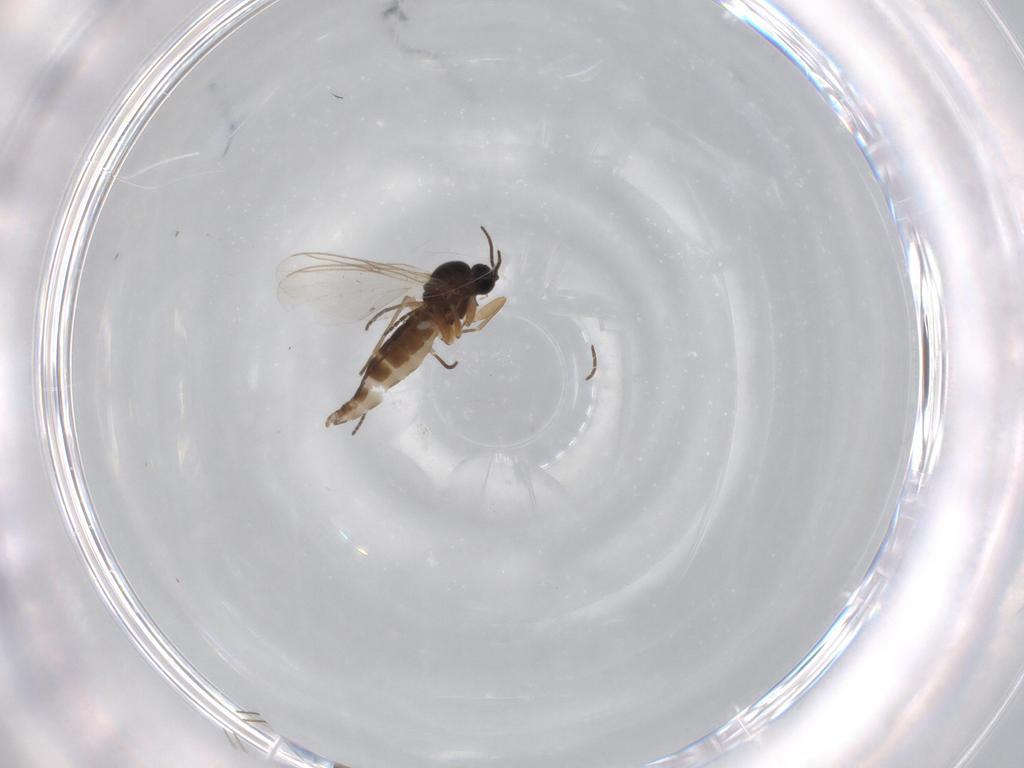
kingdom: Animalia
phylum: Arthropoda
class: Insecta
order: Diptera
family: Sciaridae
